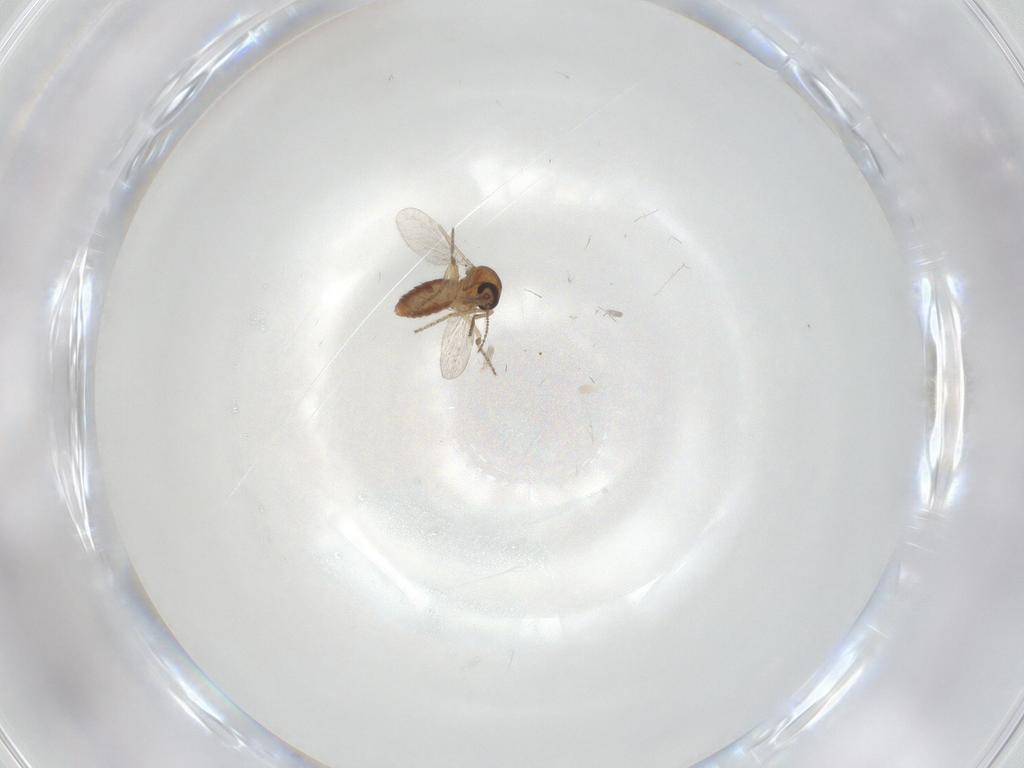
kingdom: Animalia
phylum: Arthropoda
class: Insecta
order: Diptera
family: Ceratopogonidae
